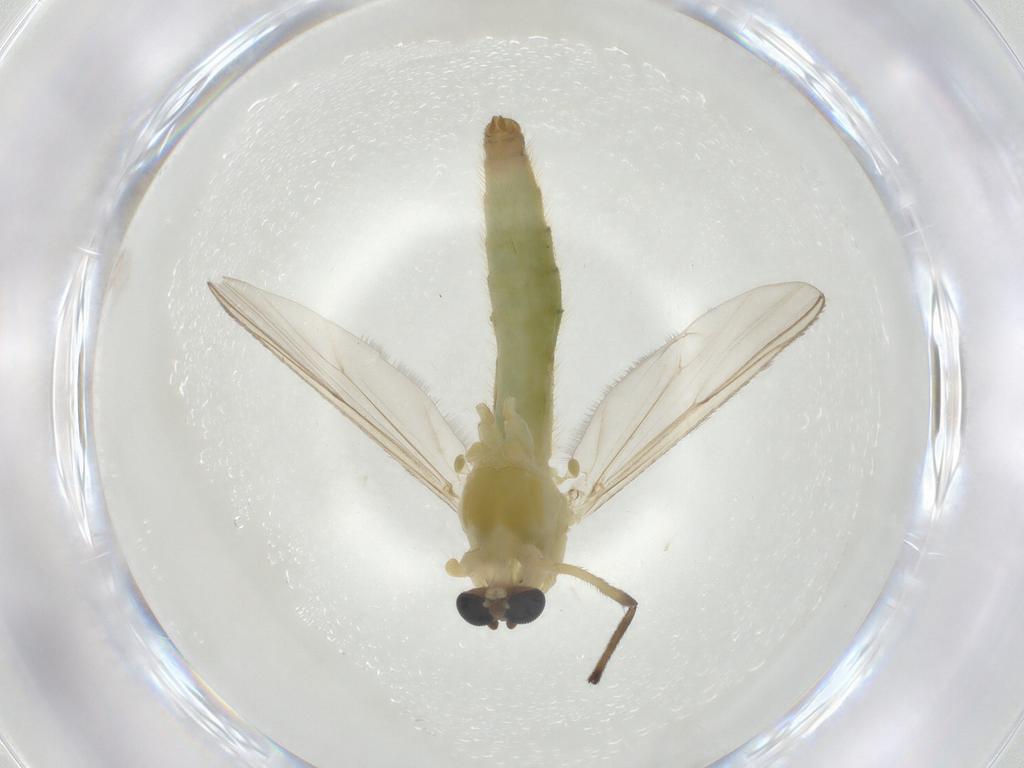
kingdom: Animalia
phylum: Arthropoda
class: Insecta
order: Diptera
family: Chironomidae
